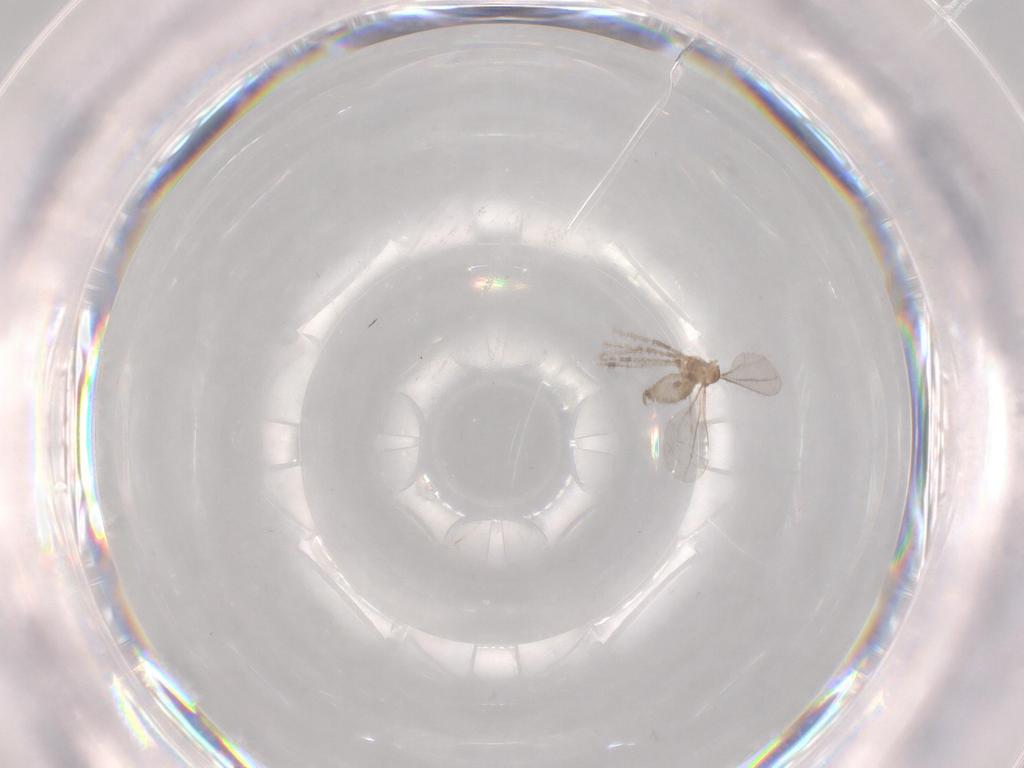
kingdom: Animalia
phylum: Arthropoda
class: Insecta
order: Diptera
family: Sciaridae
